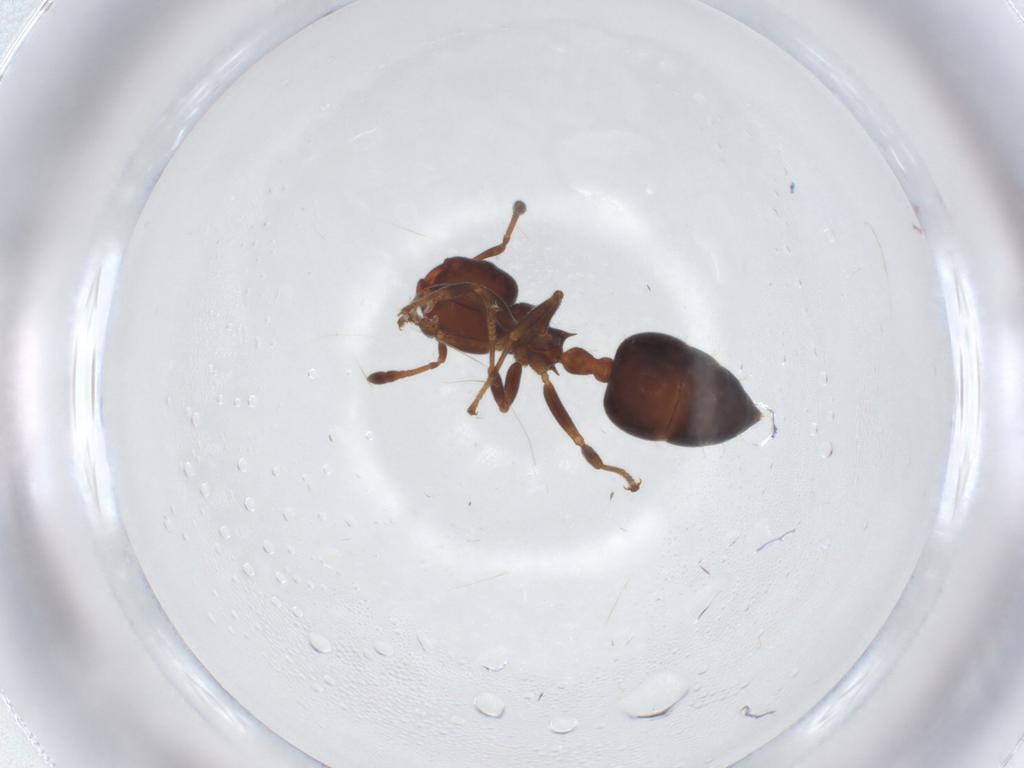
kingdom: Animalia
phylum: Arthropoda
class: Insecta
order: Hymenoptera
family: Formicidae
